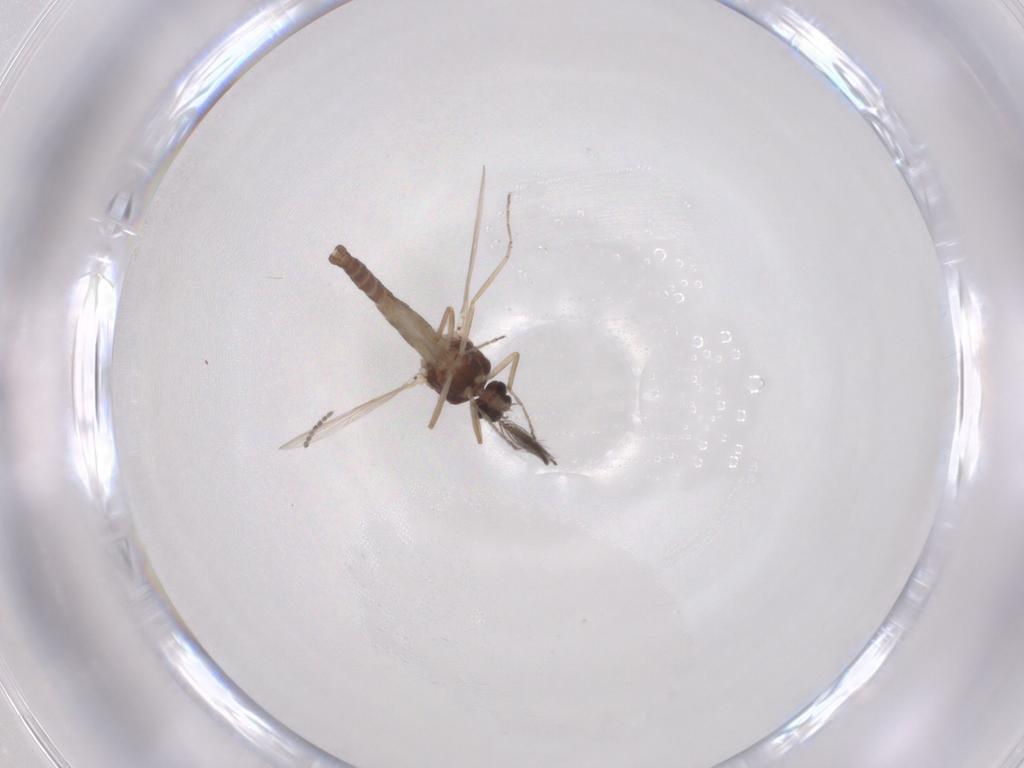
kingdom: Animalia
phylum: Arthropoda
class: Insecta
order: Diptera
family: Ceratopogonidae
